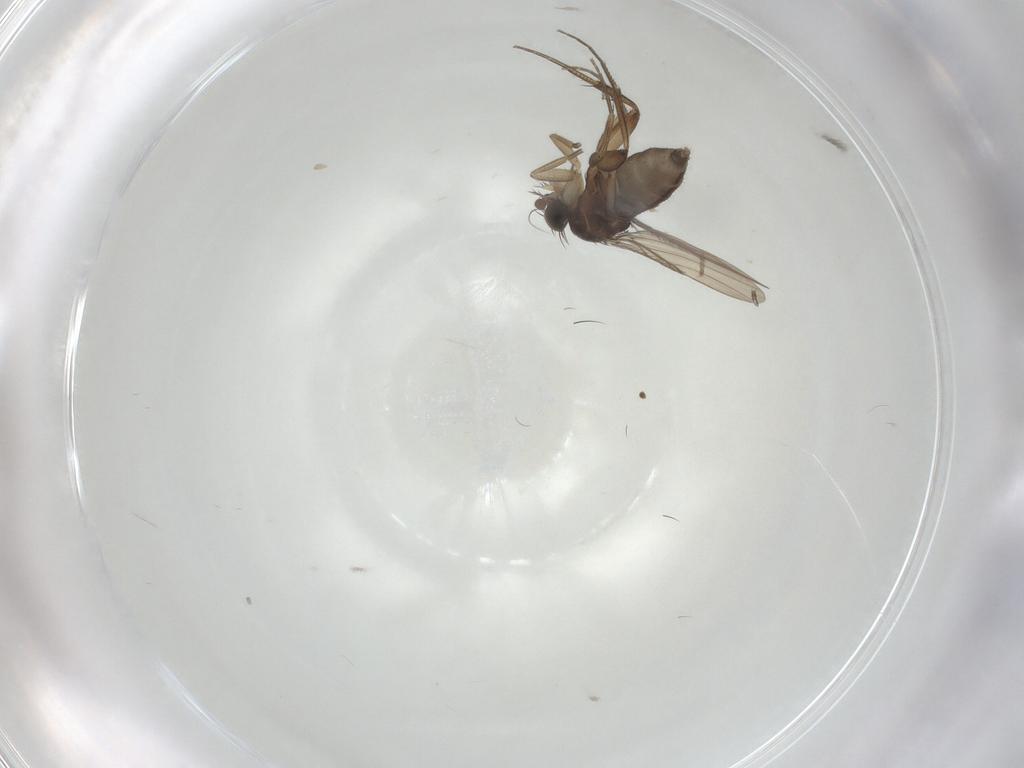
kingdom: Animalia
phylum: Arthropoda
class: Insecta
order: Diptera
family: Phoridae
